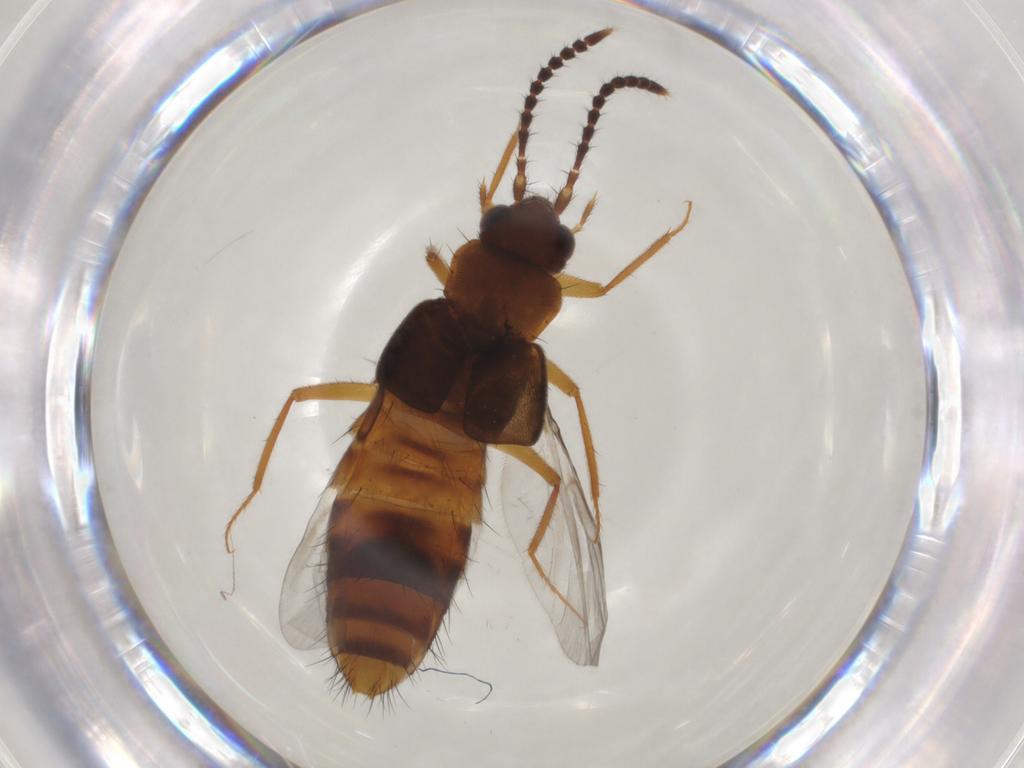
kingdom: Animalia
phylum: Arthropoda
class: Insecta
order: Coleoptera
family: Staphylinidae
